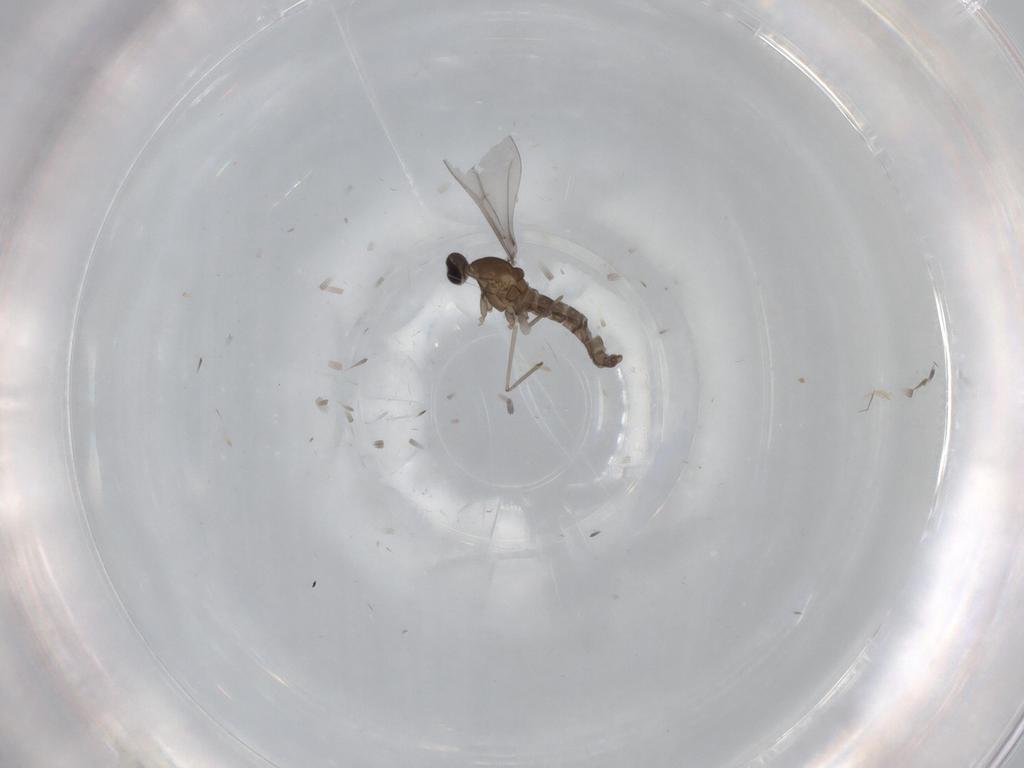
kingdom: Animalia
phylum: Arthropoda
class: Insecta
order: Diptera
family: Cecidomyiidae
